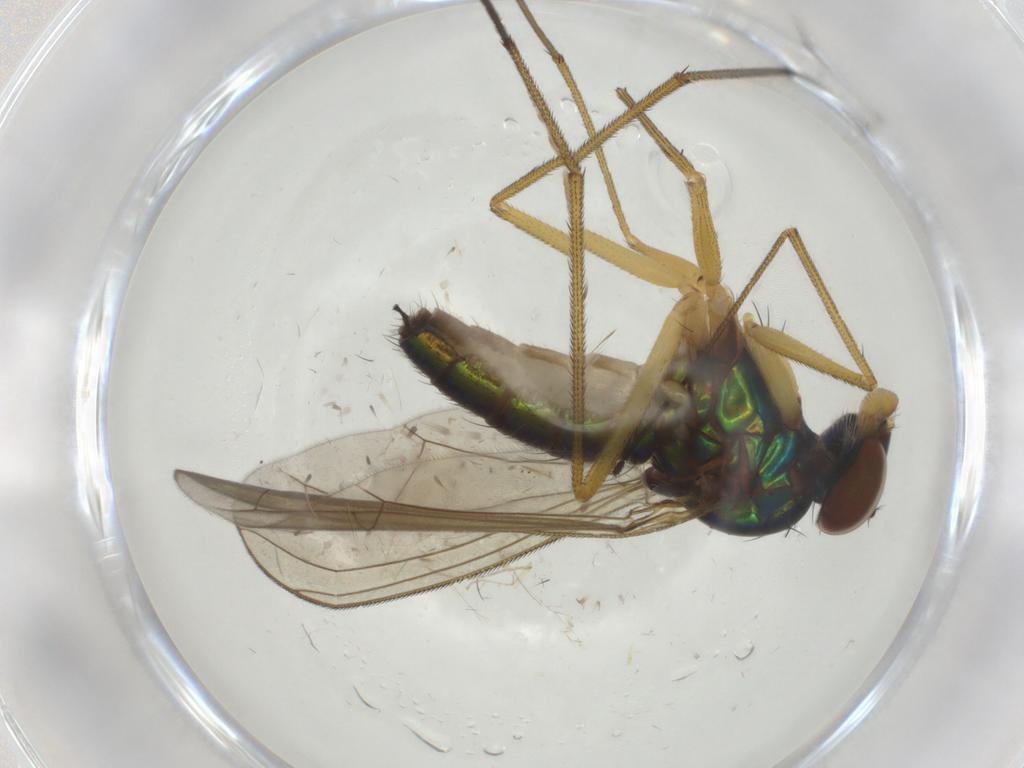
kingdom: Animalia
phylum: Arthropoda
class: Insecta
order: Diptera
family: Dolichopodidae
